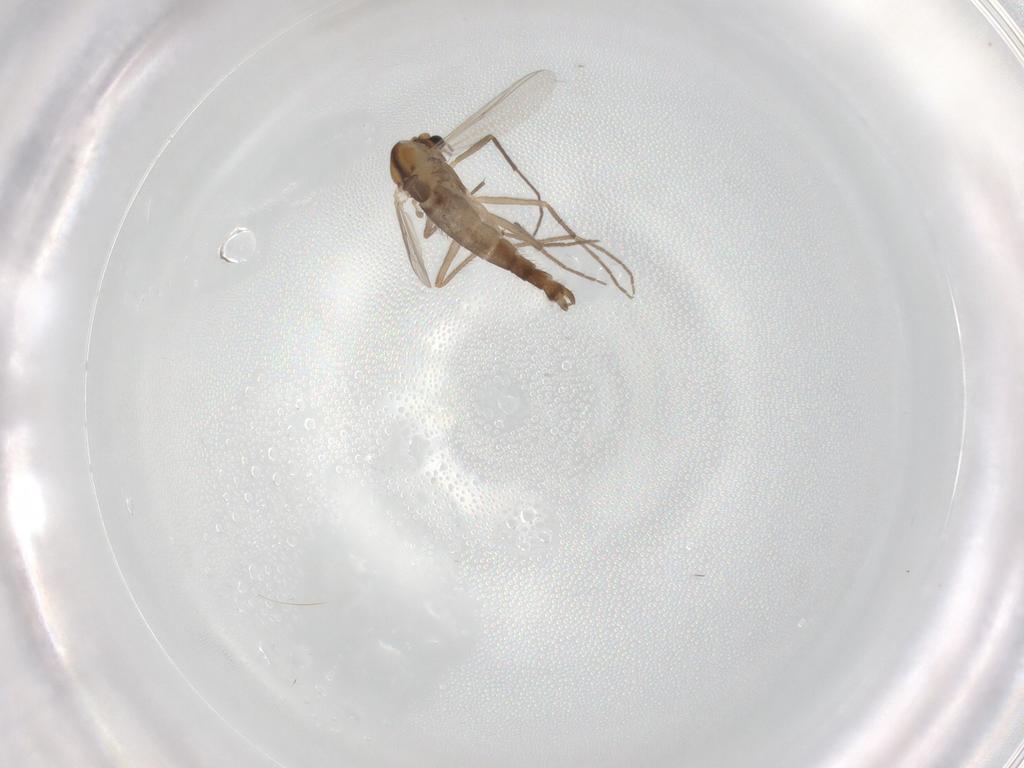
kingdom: Animalia
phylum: Arthropoda
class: Insecta
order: Diptera
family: Chironomidae
